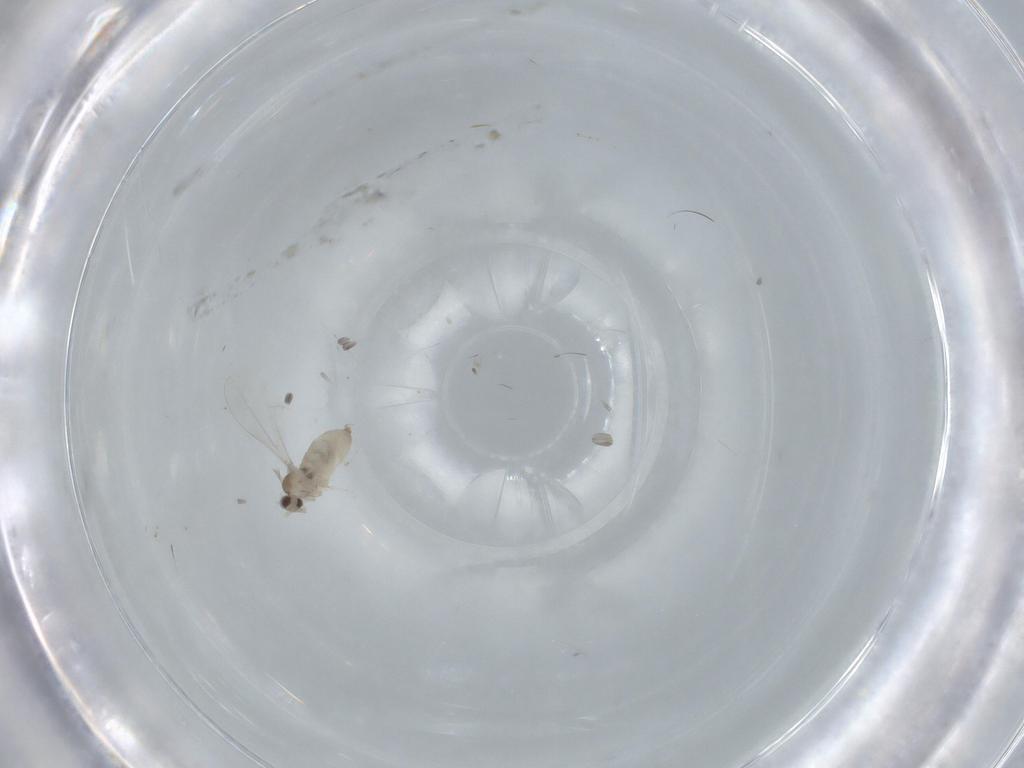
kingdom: Animalia
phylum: Arthropoda
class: Insecta
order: Diptera
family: Cecidomyiidae
